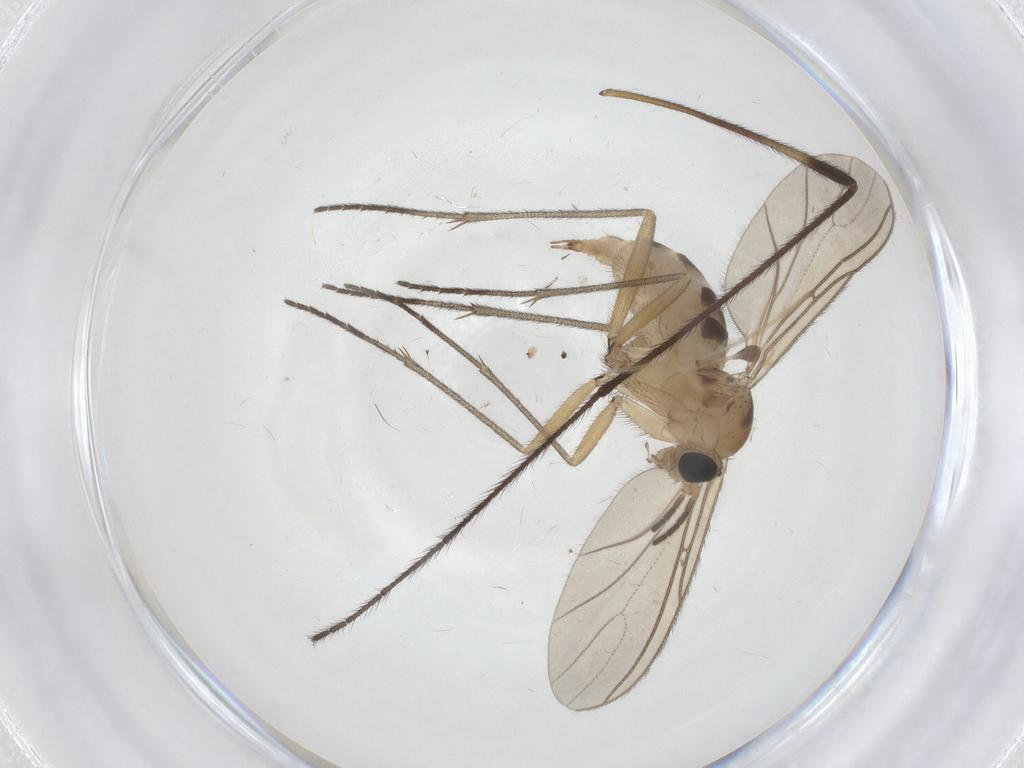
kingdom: Animalia
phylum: Arthropoda
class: Insecta
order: Diptera
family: Sciaridae
